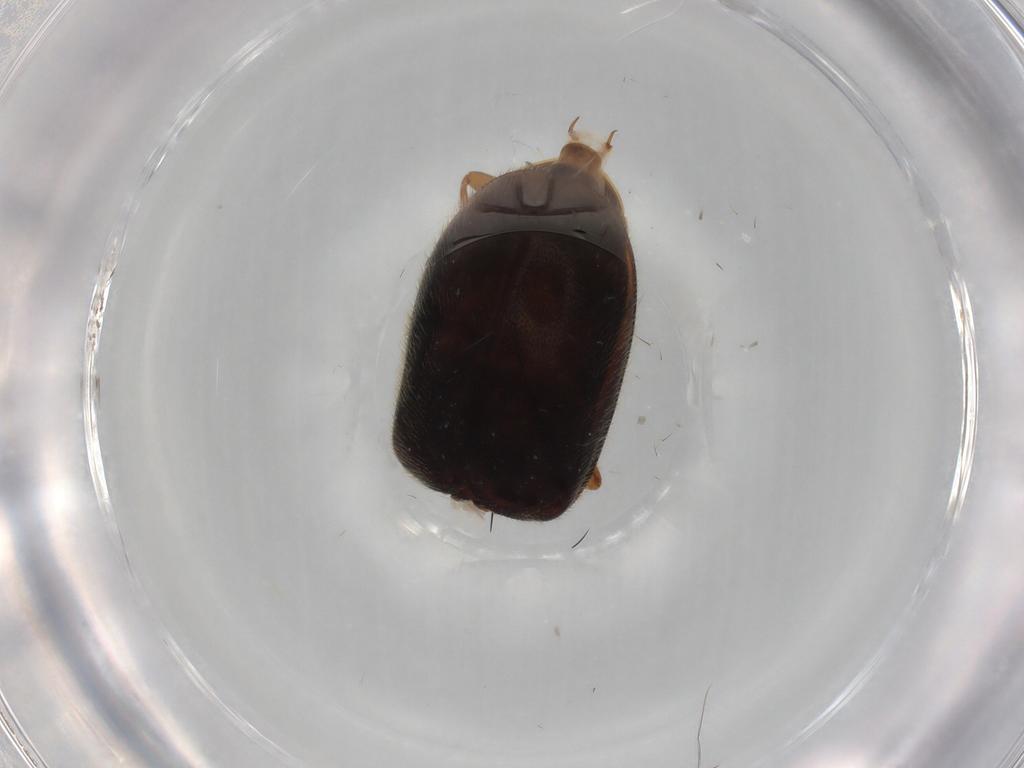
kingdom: Animalia
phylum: Arthropoda
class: Insecta
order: Coleoptera
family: Scirtidae
